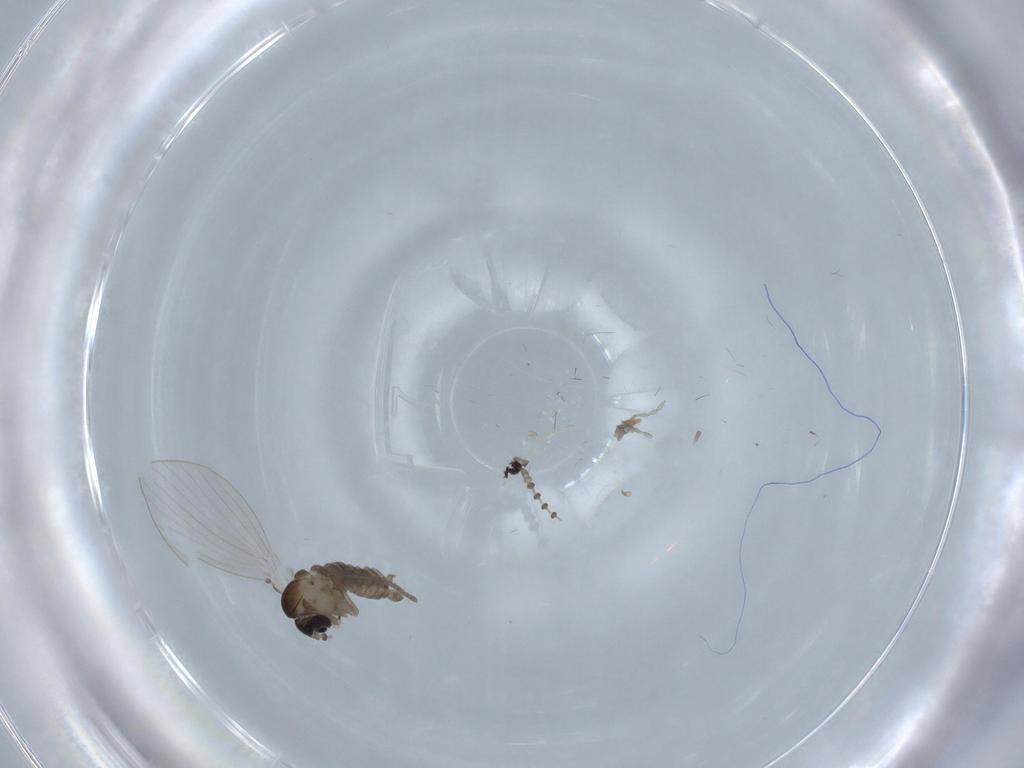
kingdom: Animalia
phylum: Arthropoda
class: Insecta
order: Diptera
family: Psychodidae
